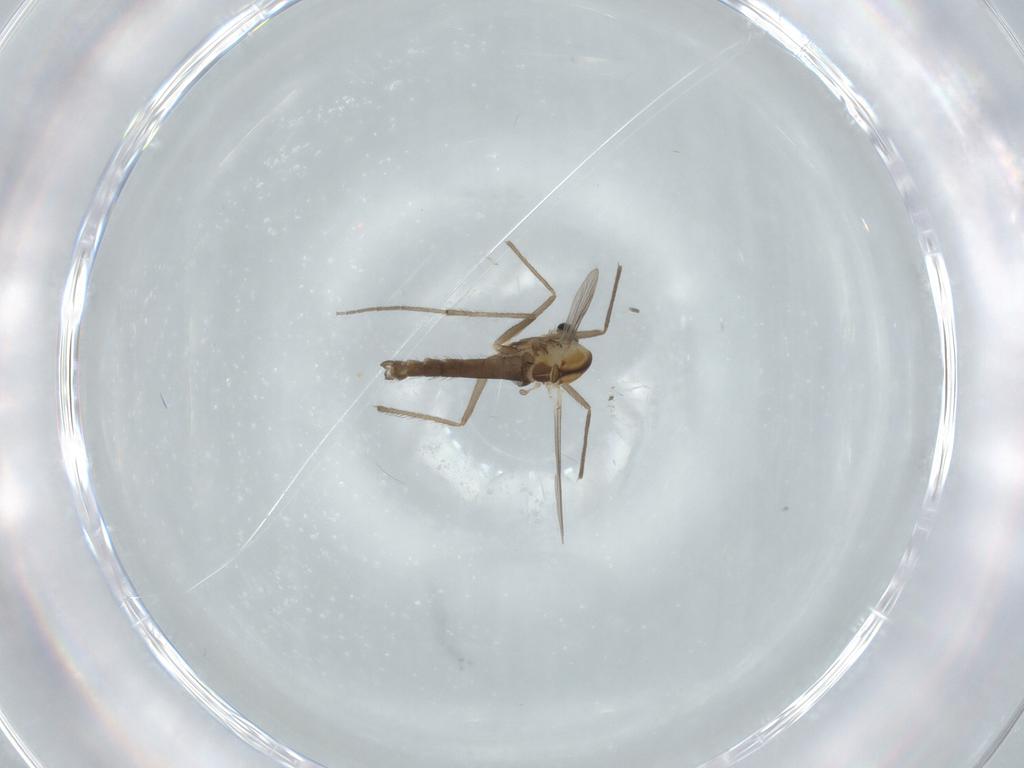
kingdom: Animalia
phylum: Arthropoda
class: Insecta
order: Diptera
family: Chironomidae
